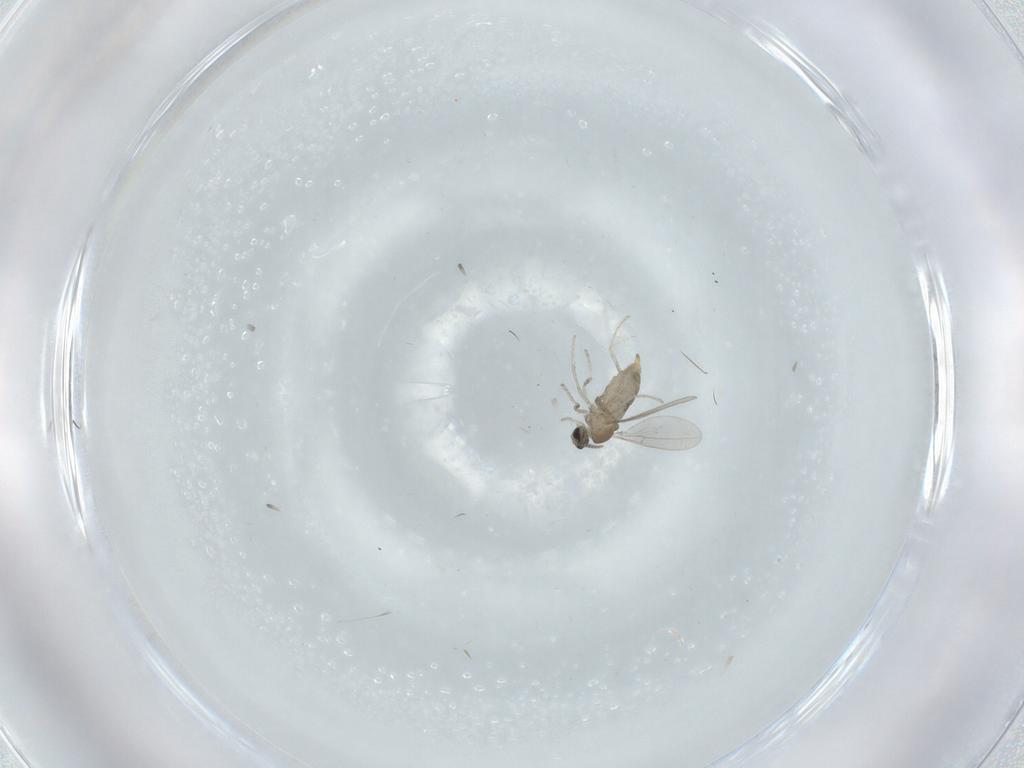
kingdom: Animalia
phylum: Arthropoda
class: Insecta
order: Diptera
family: Cecidomyiidae
